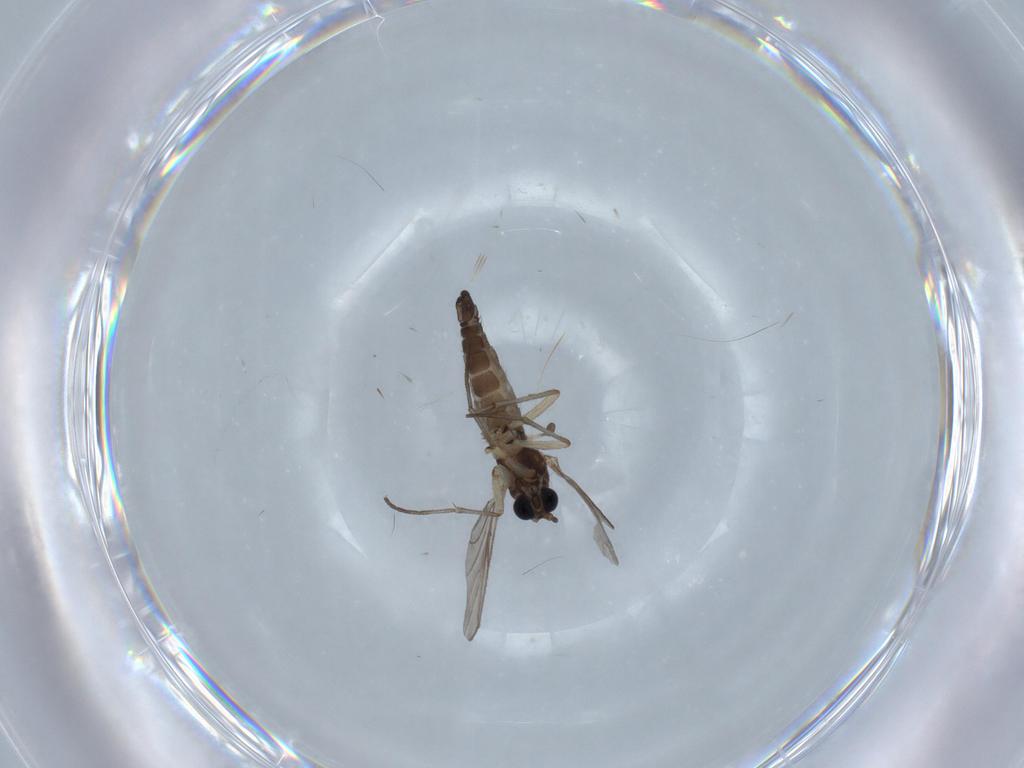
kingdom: Animalia
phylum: Arthropoda
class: Insecta
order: Diptera
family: Sciaridae
